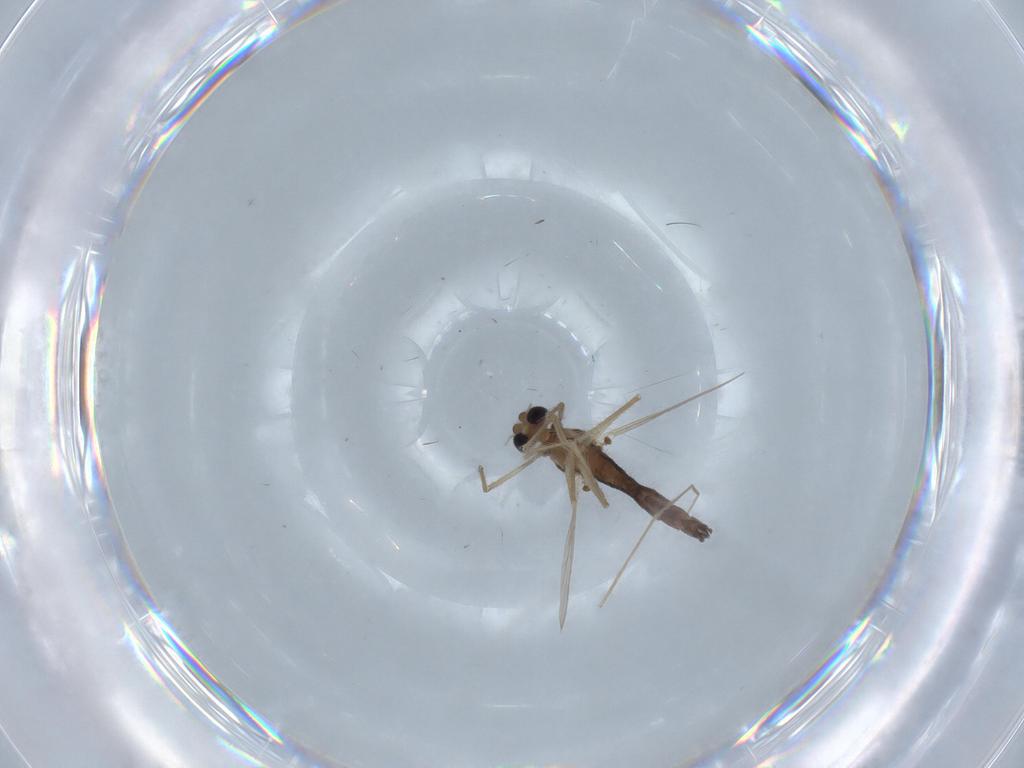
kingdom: Animalia
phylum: Arthropoda
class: Insecta
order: Diptera
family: Chironomidae
